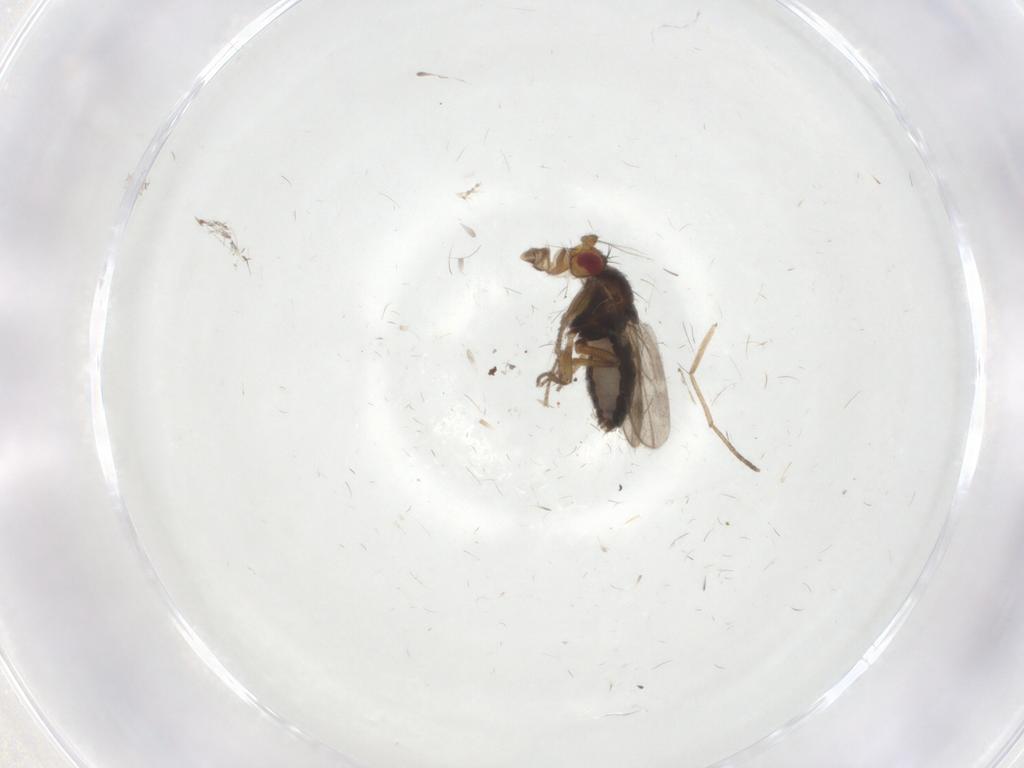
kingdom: Animalia
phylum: Arthropoda
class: Insecta
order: Diptera
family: Sphaeroceridae
